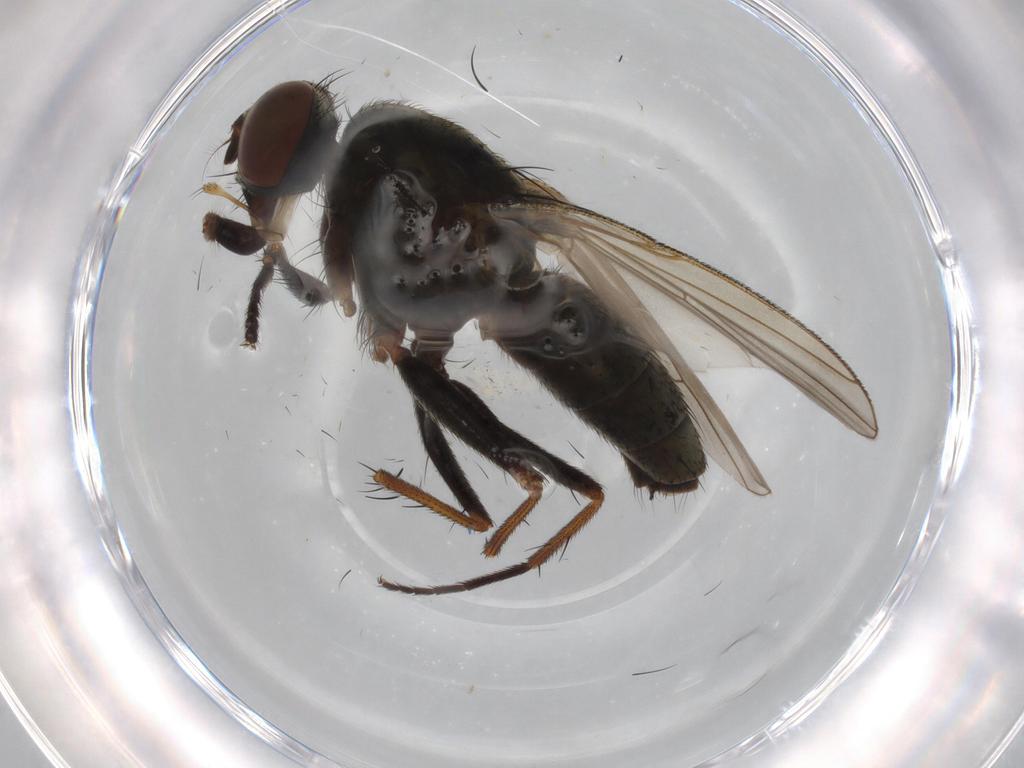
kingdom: Animalia
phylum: Arthropoda
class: Insecta
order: Diptera
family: Muscidae
